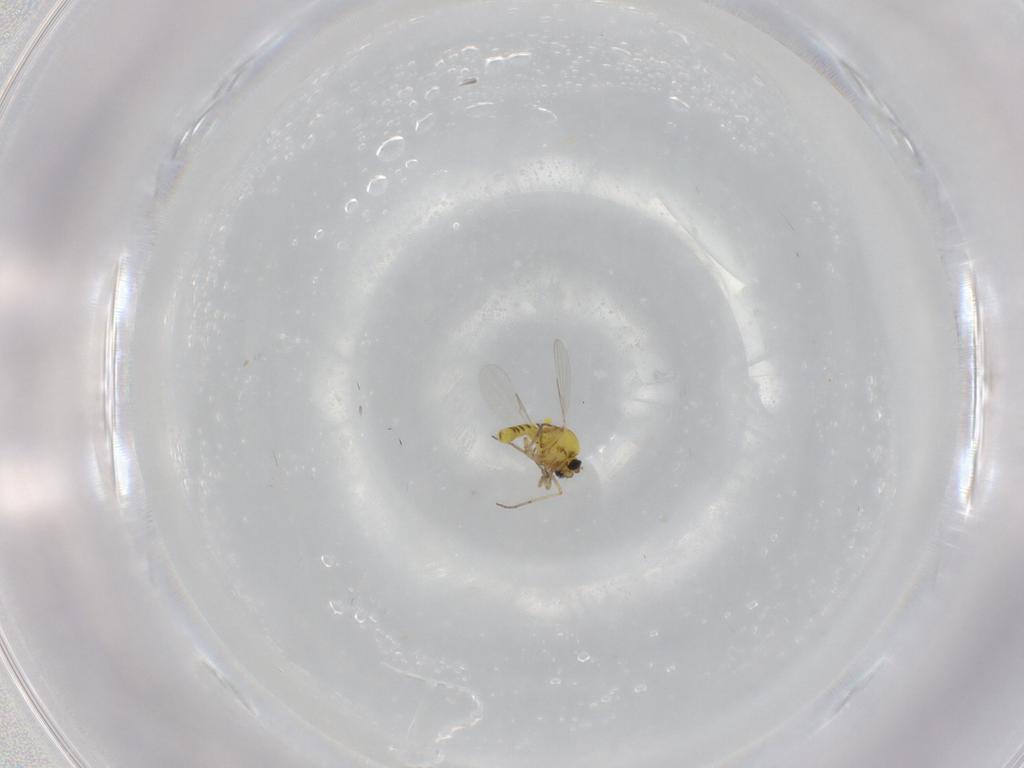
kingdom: Animalia
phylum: Arthropoda
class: Insecta
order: Diptera
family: Ceratopogonidae
